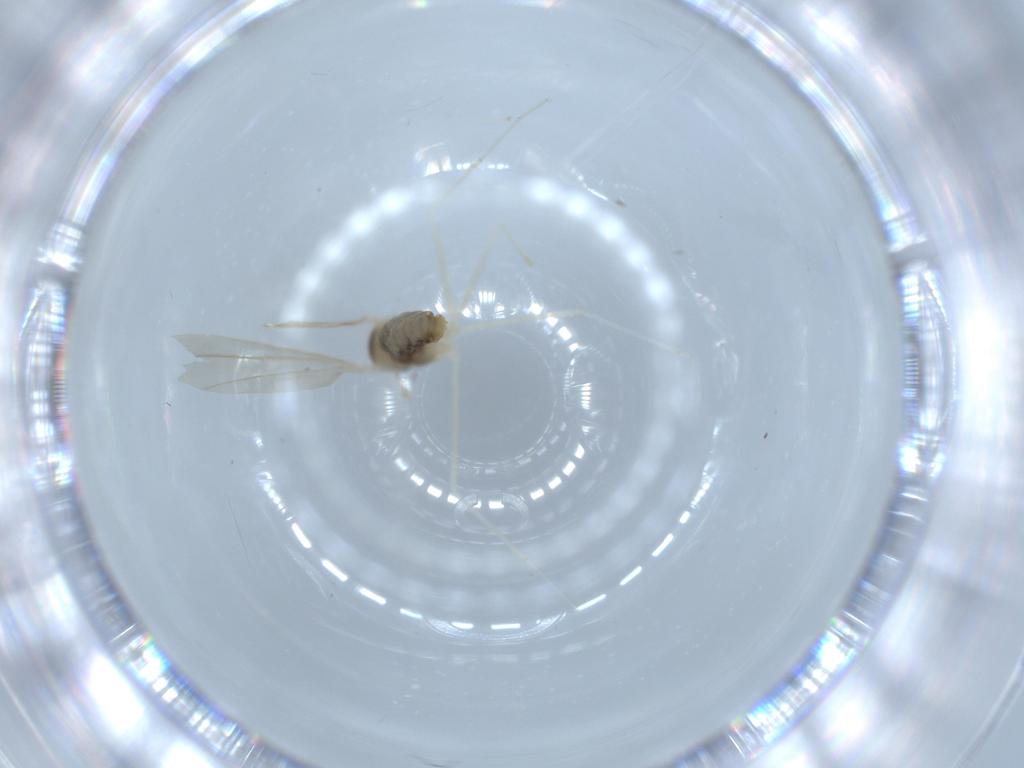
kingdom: Animalia
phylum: Arthropoda
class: Insecta
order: Diptera
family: Cecidomyiidae
